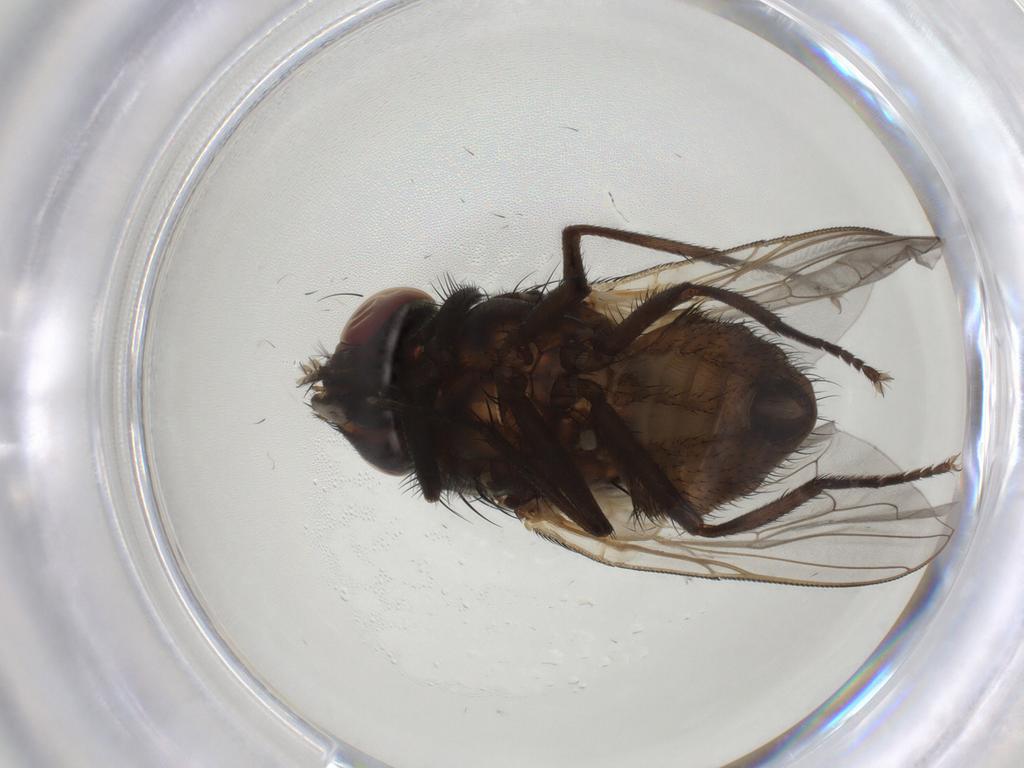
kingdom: Animalia
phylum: Arthropoda
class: Insecta
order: Diptera
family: Muscidae
